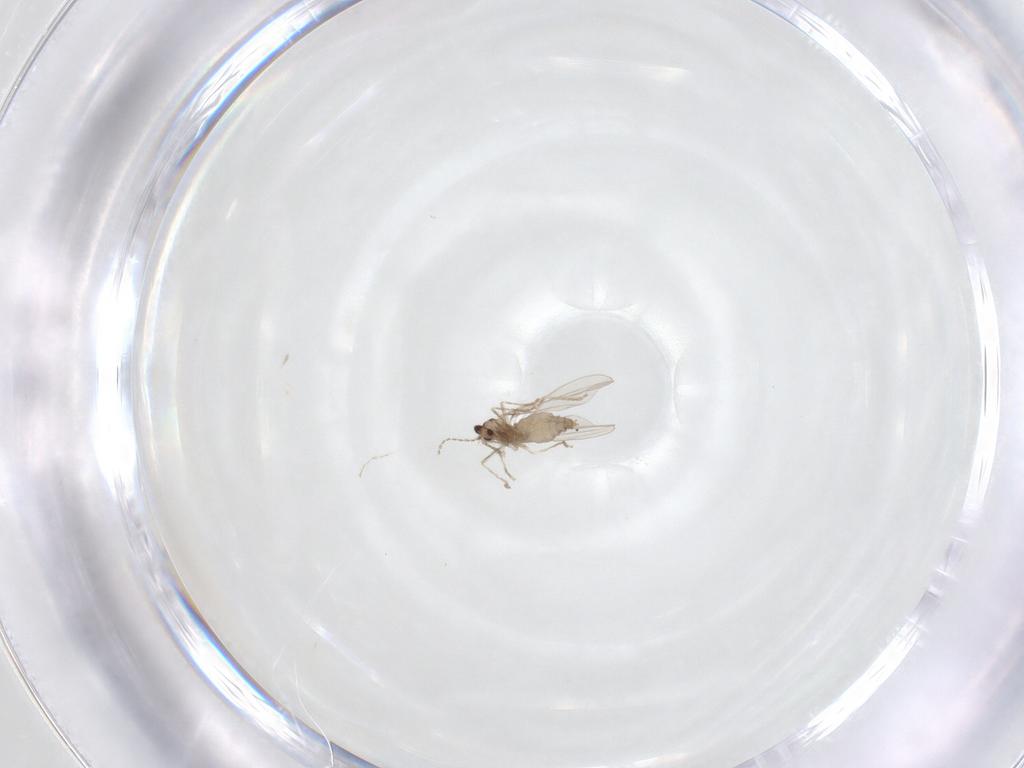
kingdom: Animalia
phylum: Arthropoda
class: Insecta
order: Diptera
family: Cecidomyiidae
